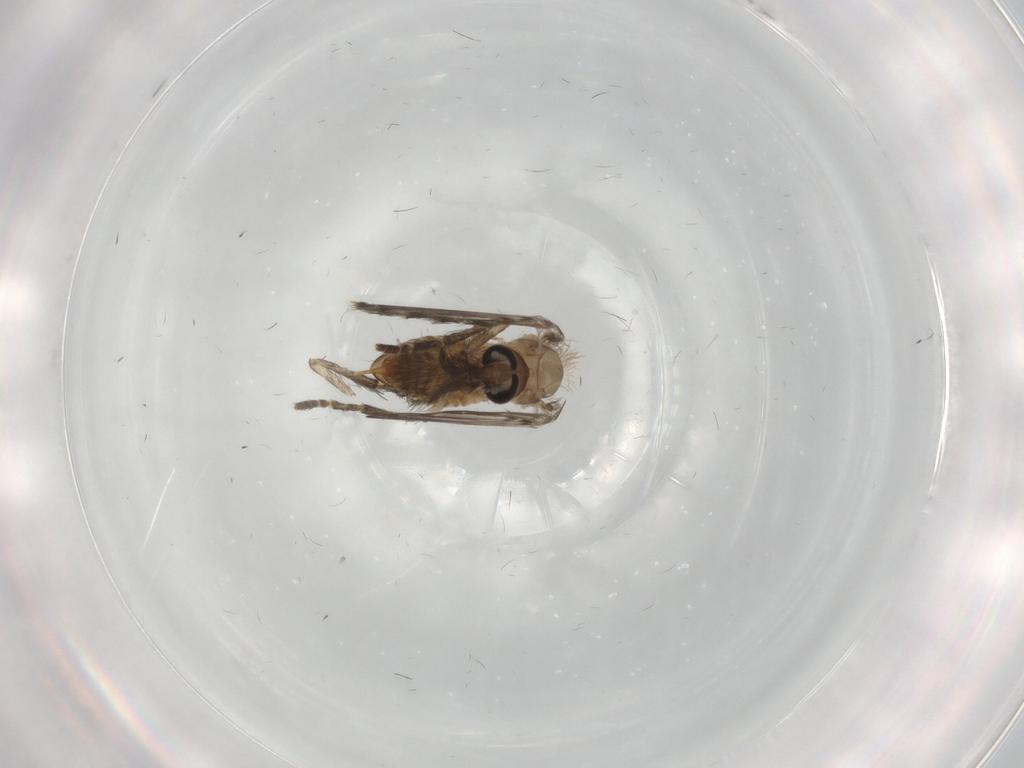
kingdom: Animalia
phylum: Arthropoda
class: Insecta
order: Diptera
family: Psychodidae
